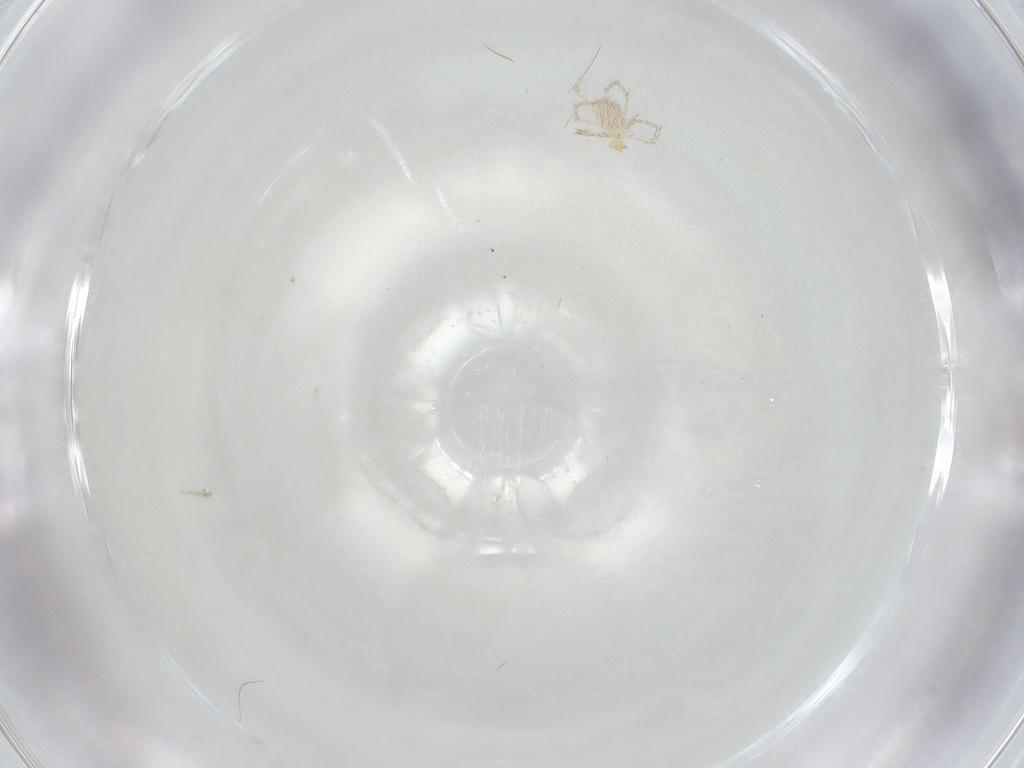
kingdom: Animalia
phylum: Arthropoda
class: Arachnida
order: Trombidiformes
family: Erythraeidae
